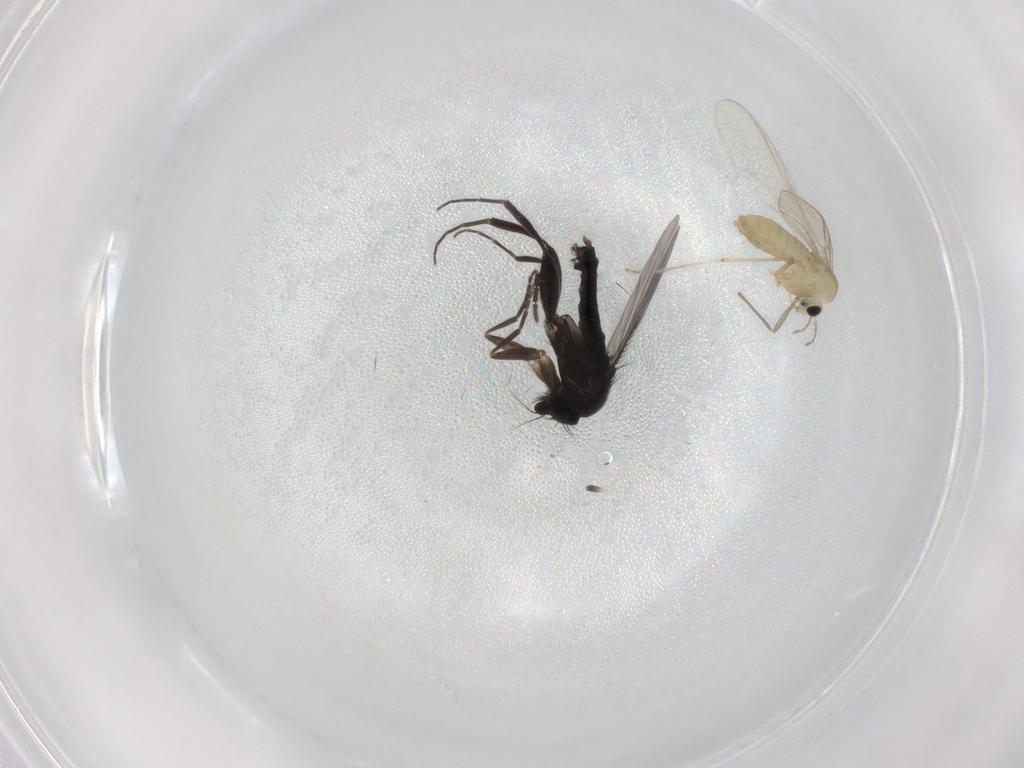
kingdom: Animalia
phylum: Arthropoda
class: Insecta
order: Diptera
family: Phoridae
